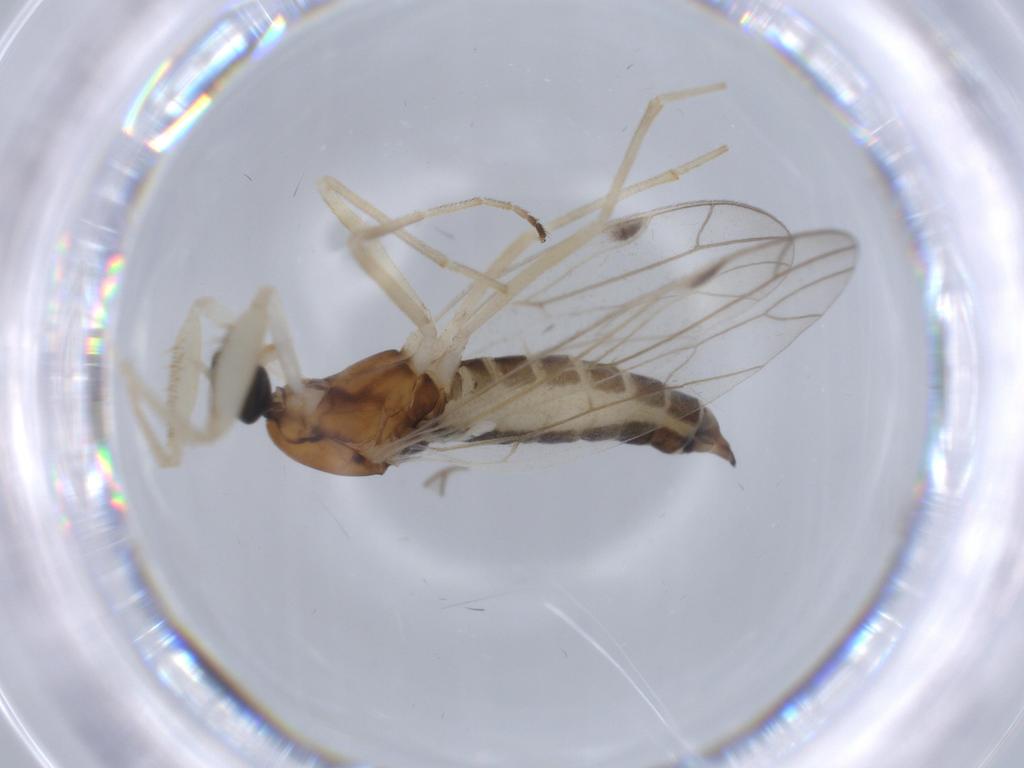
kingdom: Animalia
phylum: Arthropoda
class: Insecta
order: Diptera
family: Empididae
